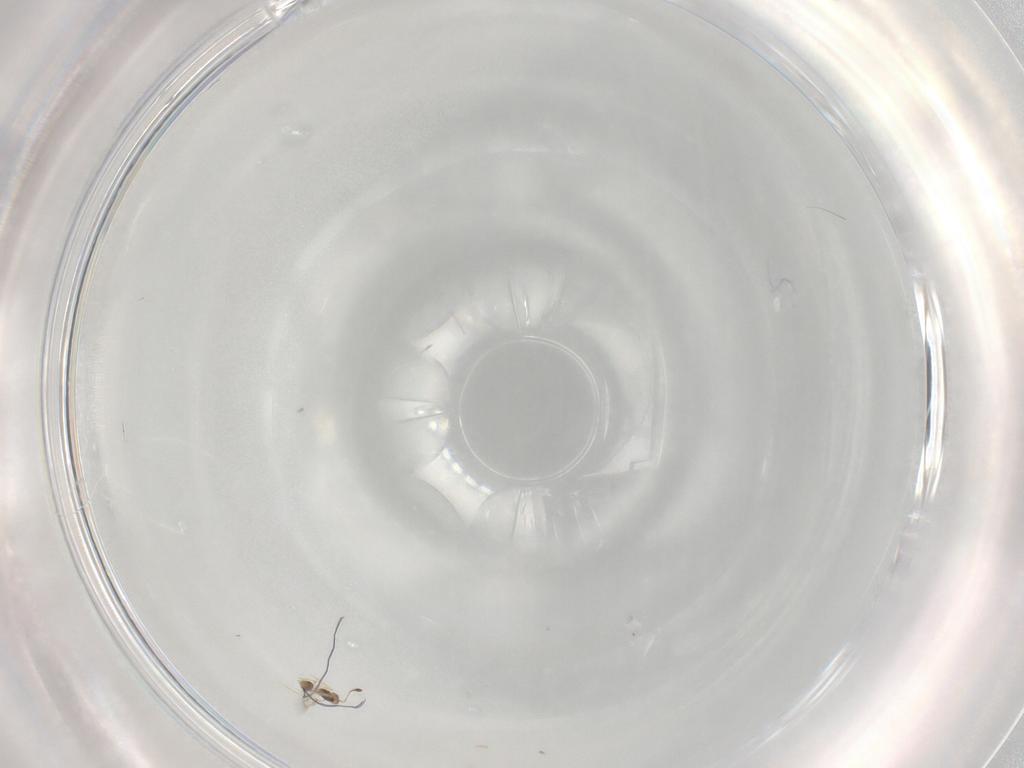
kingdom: Animalia
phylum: Arthropoda
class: Insecta
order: Hymenoptera
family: Mymarommatidae
